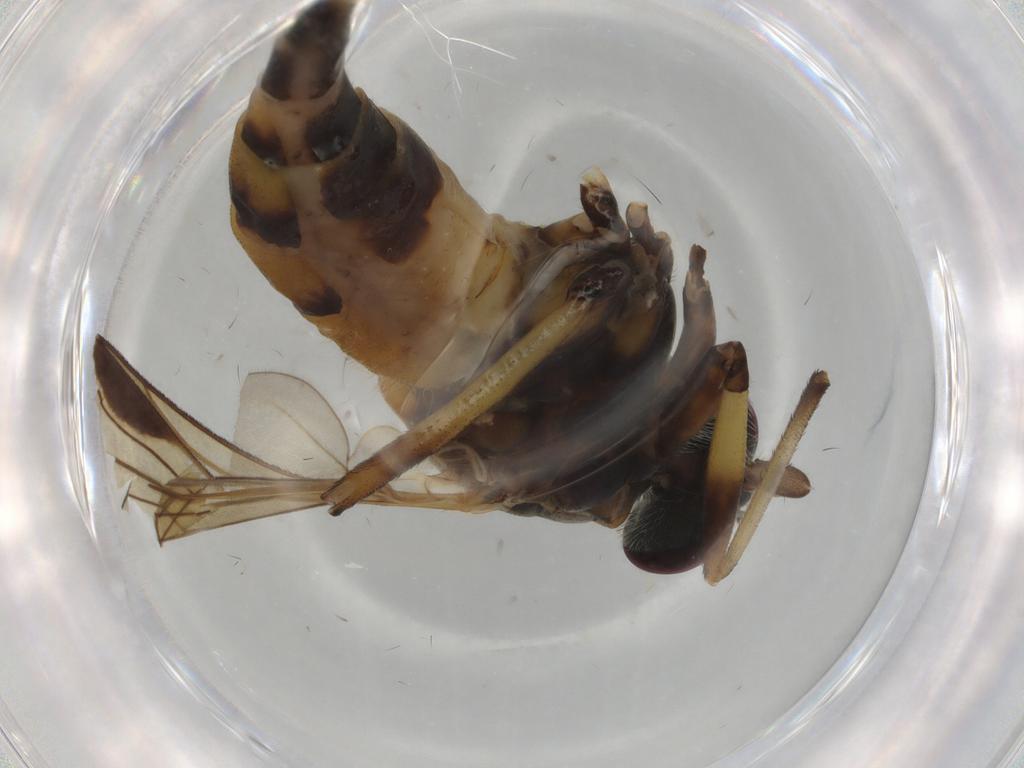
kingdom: Animalia
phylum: Arthropoda
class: Insecta
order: Diptera
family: Rhagionidae
